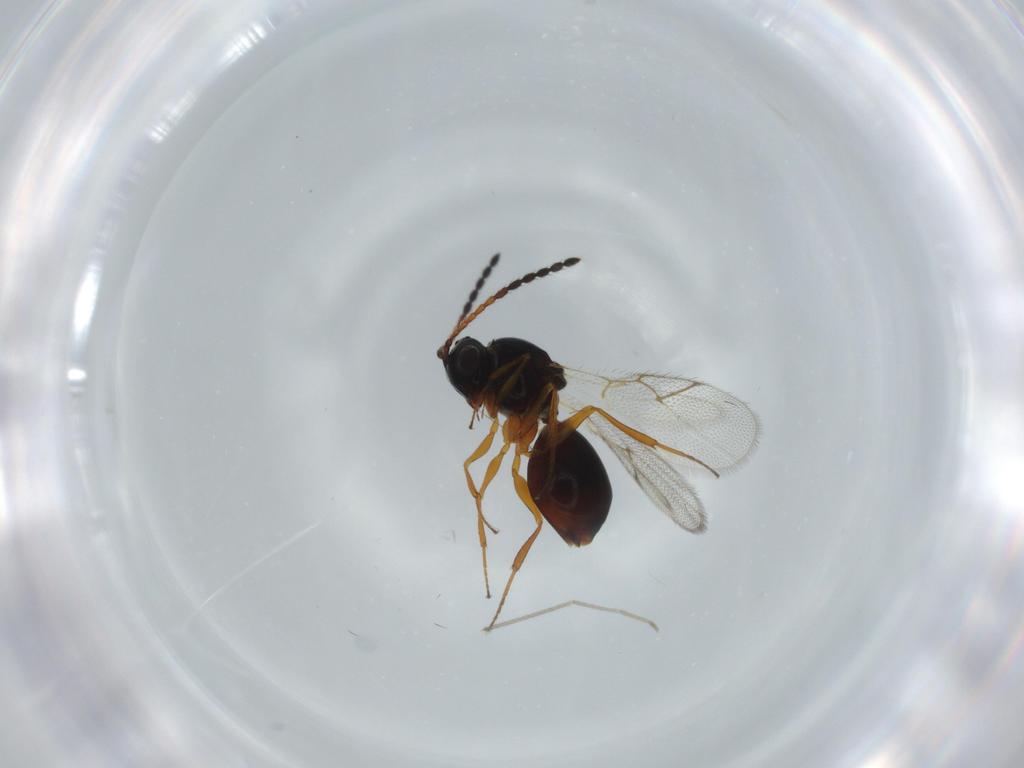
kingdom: Animalia
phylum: Arthropoda
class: Insecta
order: Hymenoptera
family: Figitidae
